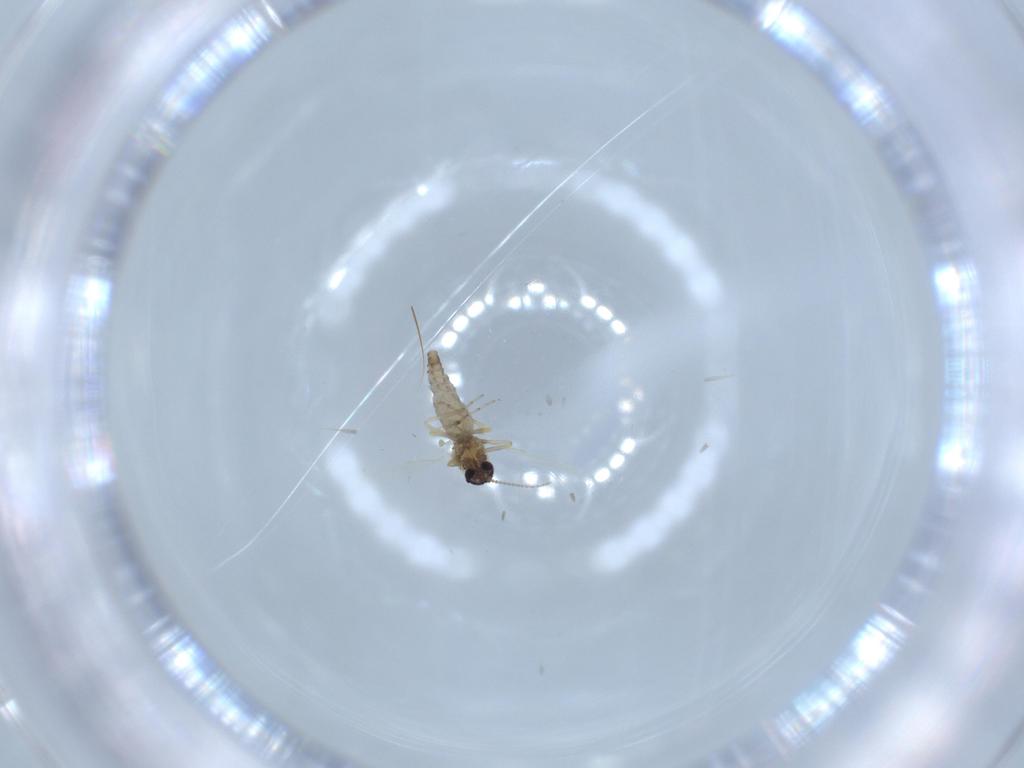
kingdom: Animalia
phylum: Arthropoda
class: Insecta
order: Diptera
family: Ceratopogonidae
